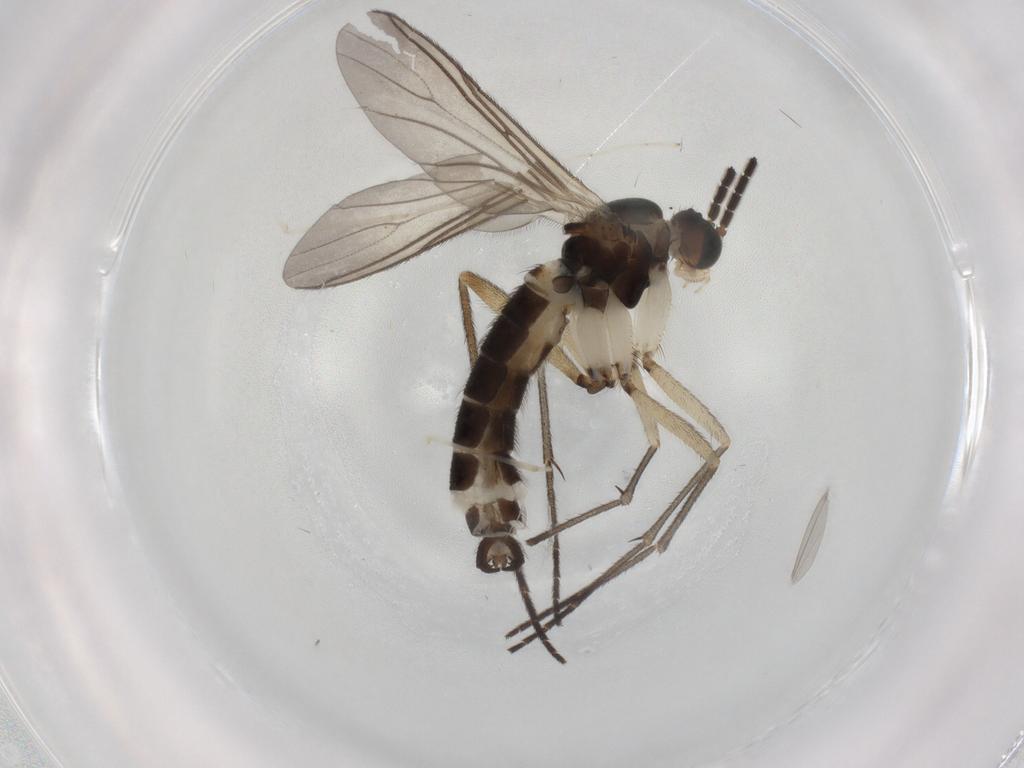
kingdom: Animalia
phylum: Arthropoda
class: Insecta
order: Diptera
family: Sciaridae
